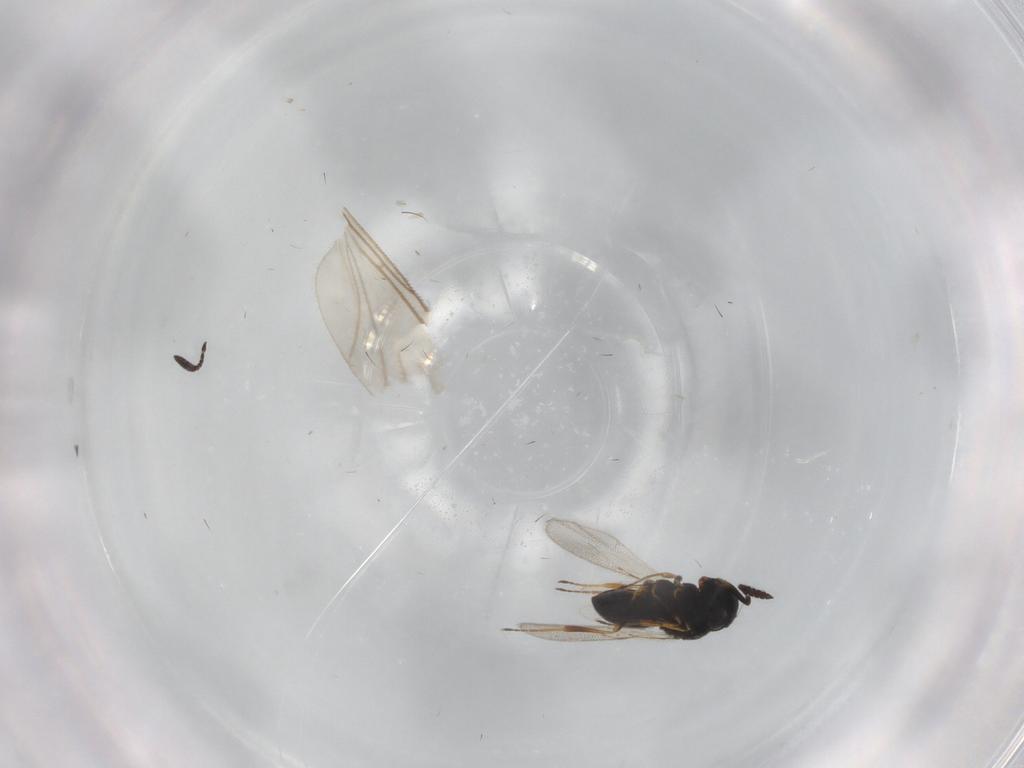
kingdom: Animalia
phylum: Arthropoda
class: Insecta
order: Hymenoptera
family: Scelionidae
